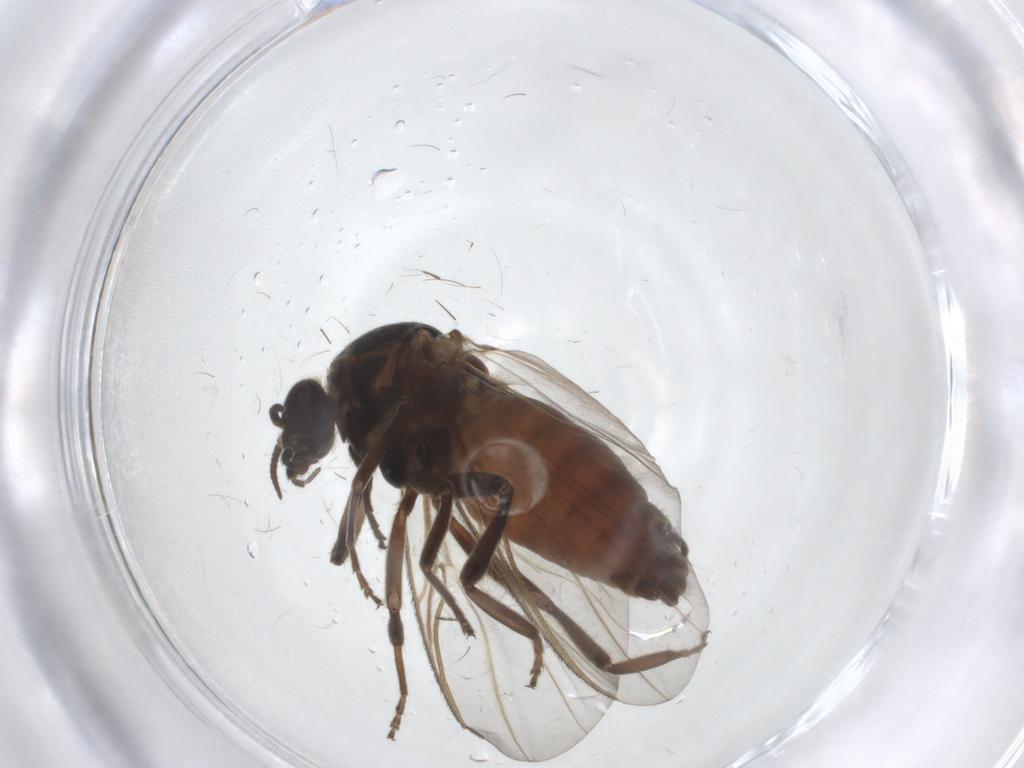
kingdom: Animalia
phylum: Arthropoda
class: Insecta
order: Diptera
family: Simuliidae
